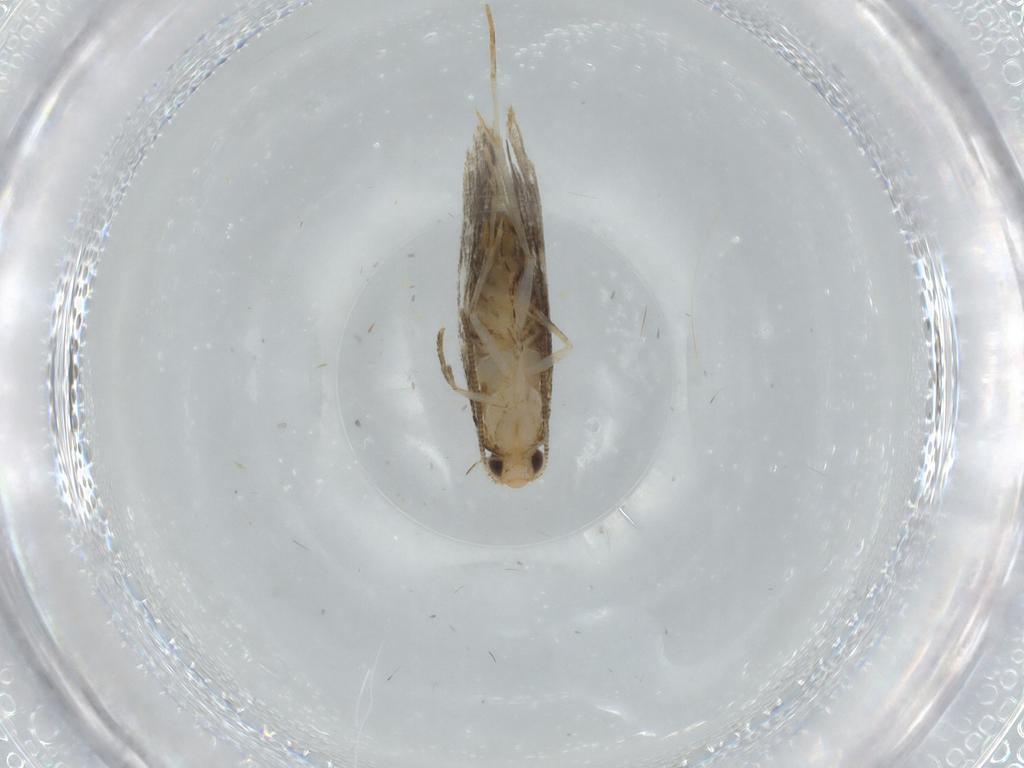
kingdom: Animalia
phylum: Arthropoda
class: Insecta
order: Lepidoptera
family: Tineidae
